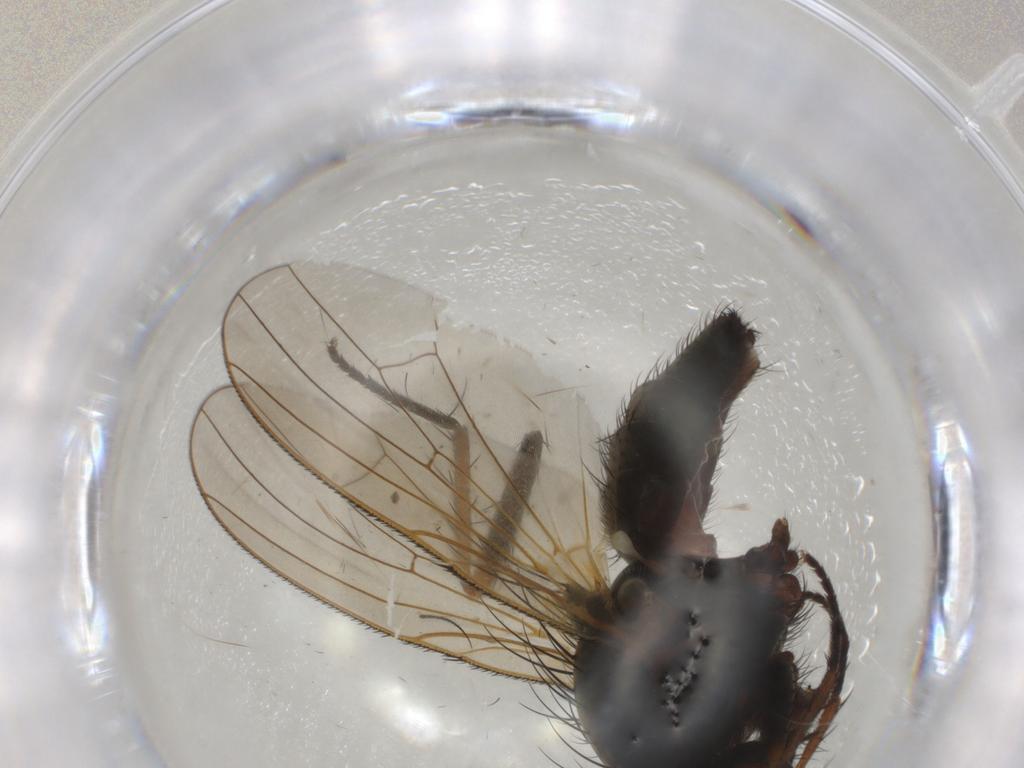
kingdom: Animalia
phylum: Arthropoda
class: Insecta
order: Diptera
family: Anthomyiidae
